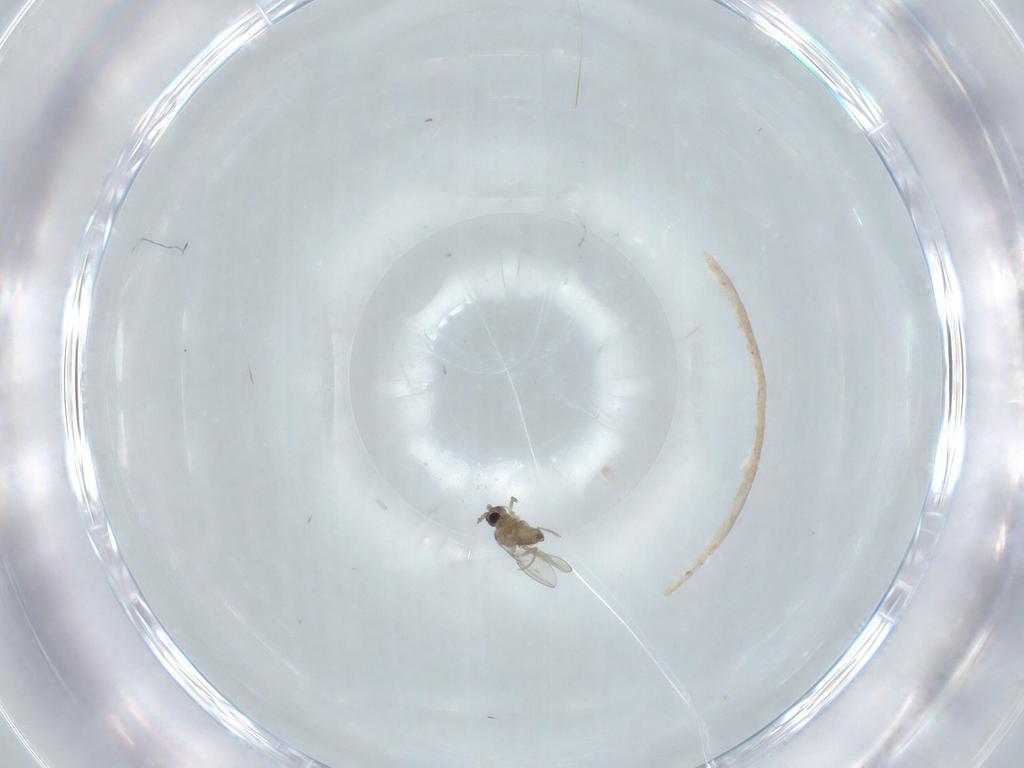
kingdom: Animalia
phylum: Arthropoda
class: Insecta
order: Diptera
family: Cecidomyiidae
